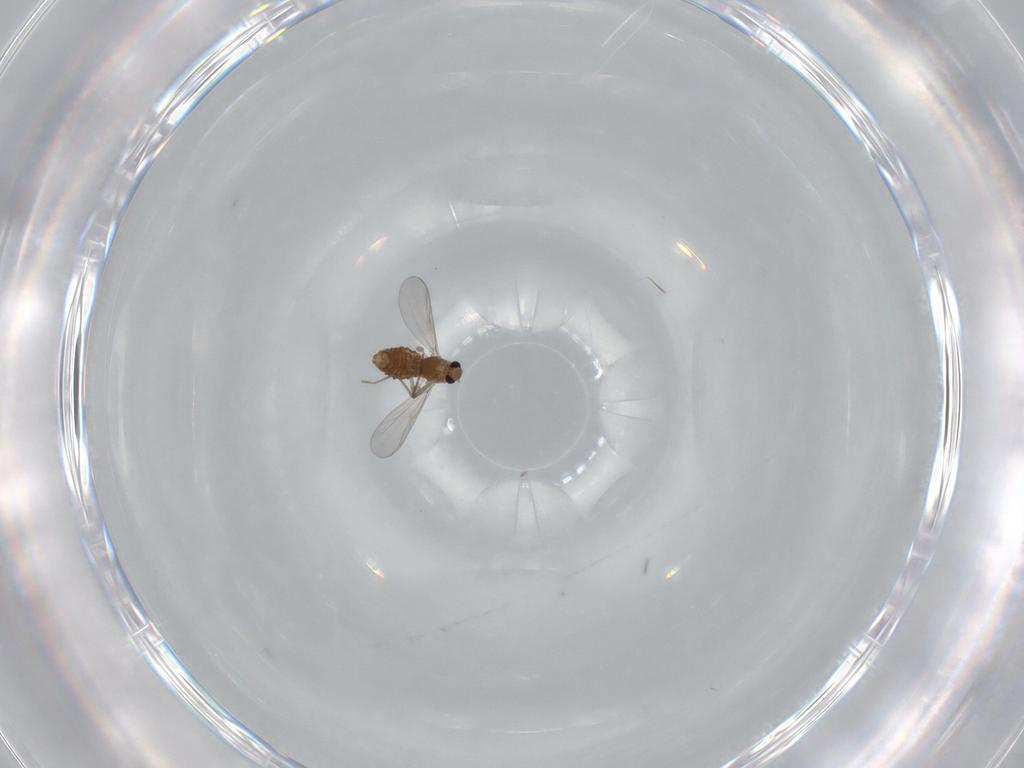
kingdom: Animalia
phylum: Arthropoda
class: Insecta
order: Diptera
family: Chironomidae
